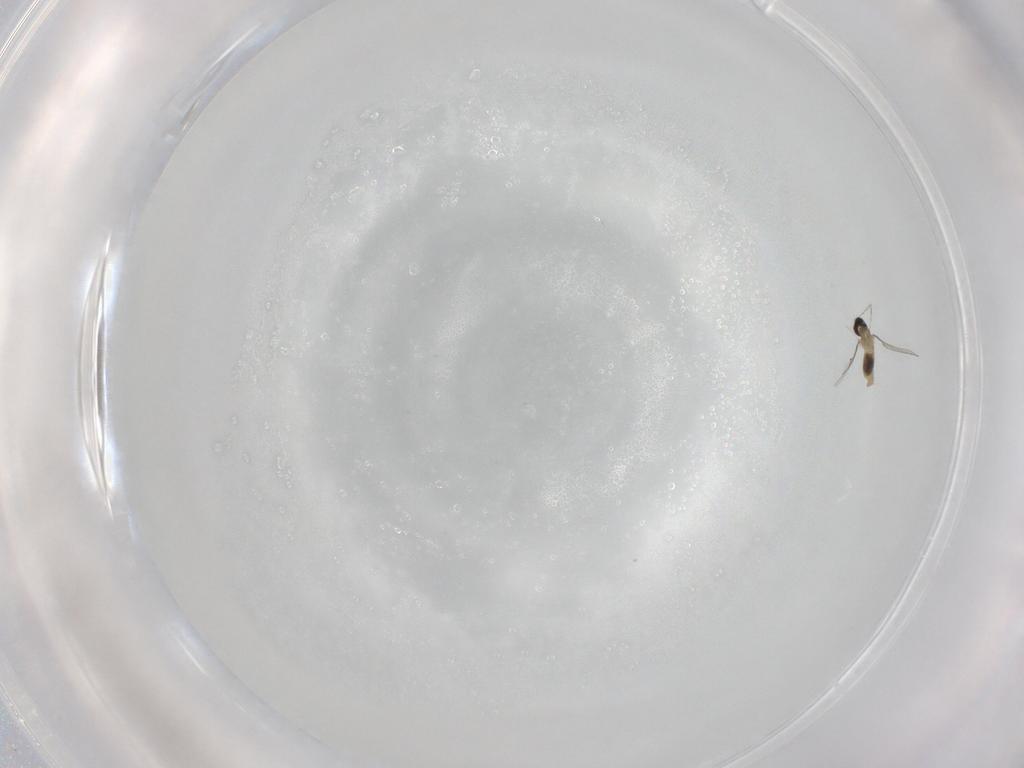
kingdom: Animalia
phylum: Arthropoda
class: Insecta
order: Diptera
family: Cecidomyiidae
